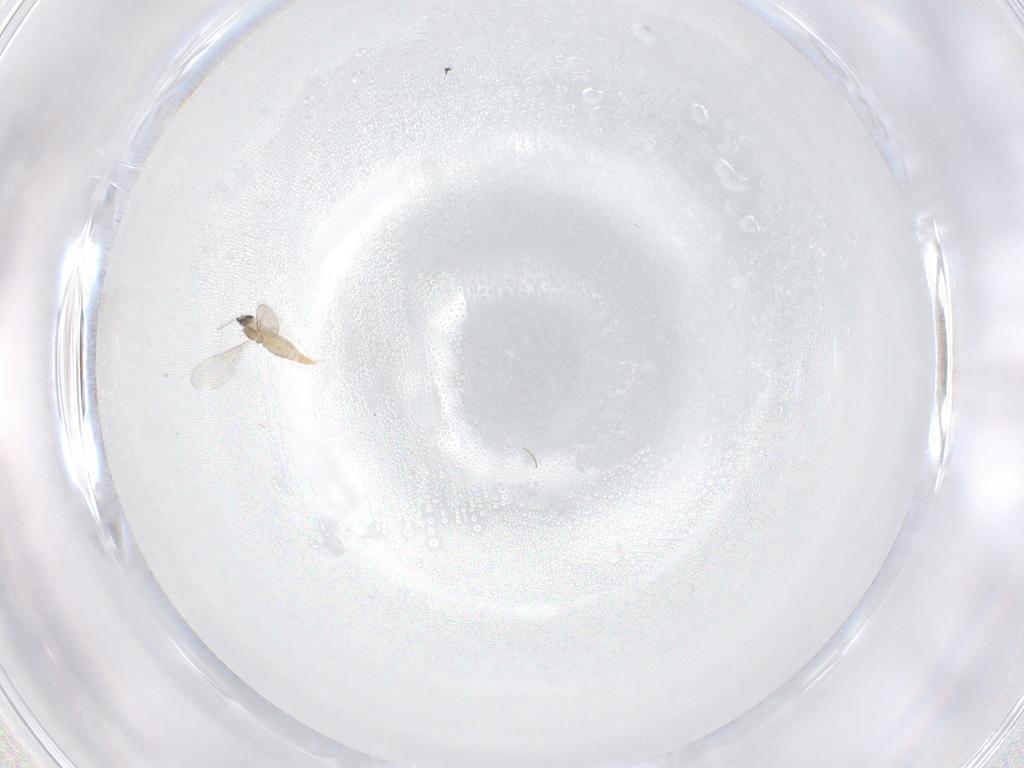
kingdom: Animalia
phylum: Arthropoda
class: Insecta
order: Diptera
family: Cecidomyiidae
